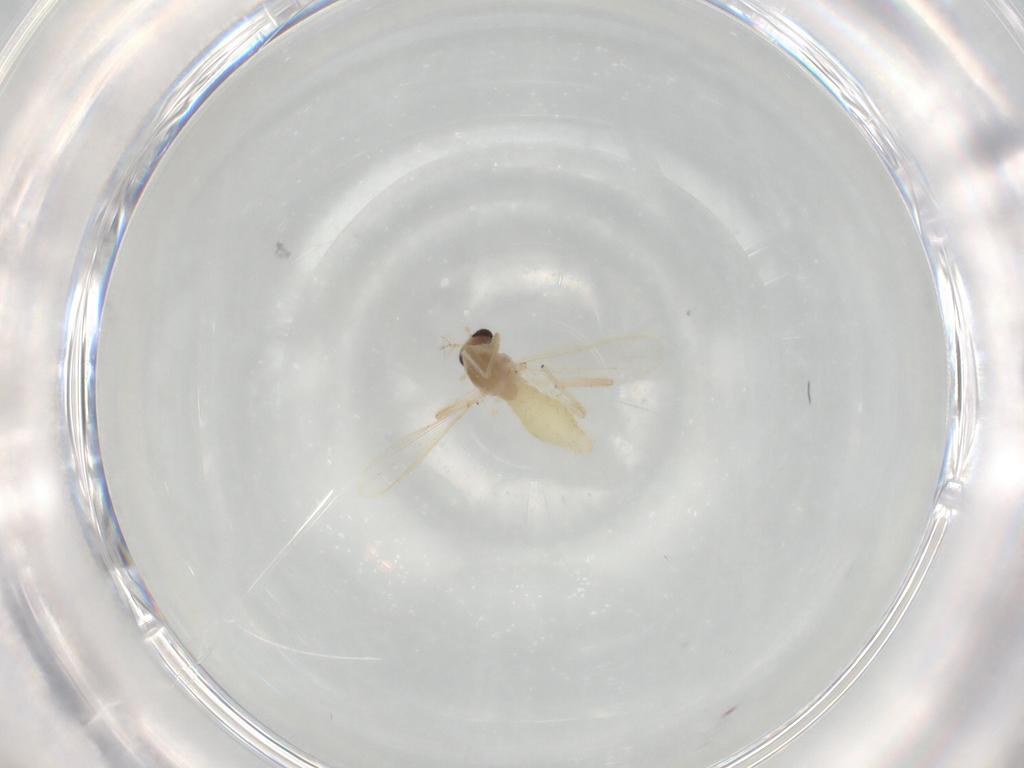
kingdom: Animalia
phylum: Arthropoda
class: Insecta
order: Diptera
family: Chironomidae
